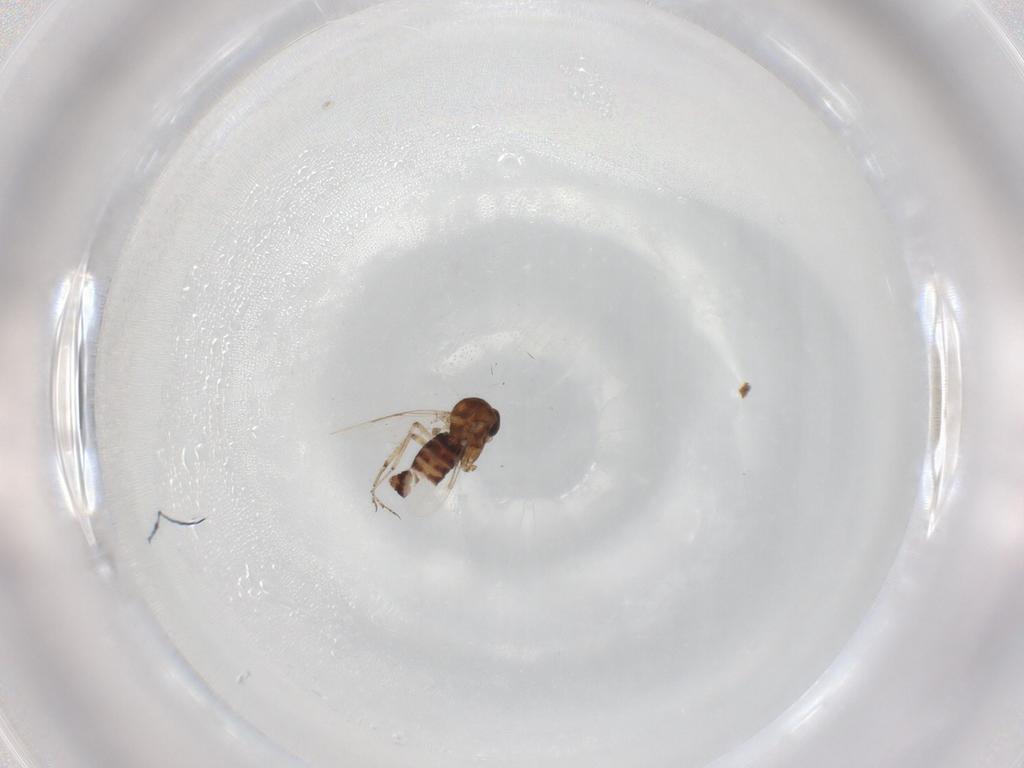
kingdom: Animalia
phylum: Arthropoda
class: Insecta
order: Diptera
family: Ceratopogonidae
